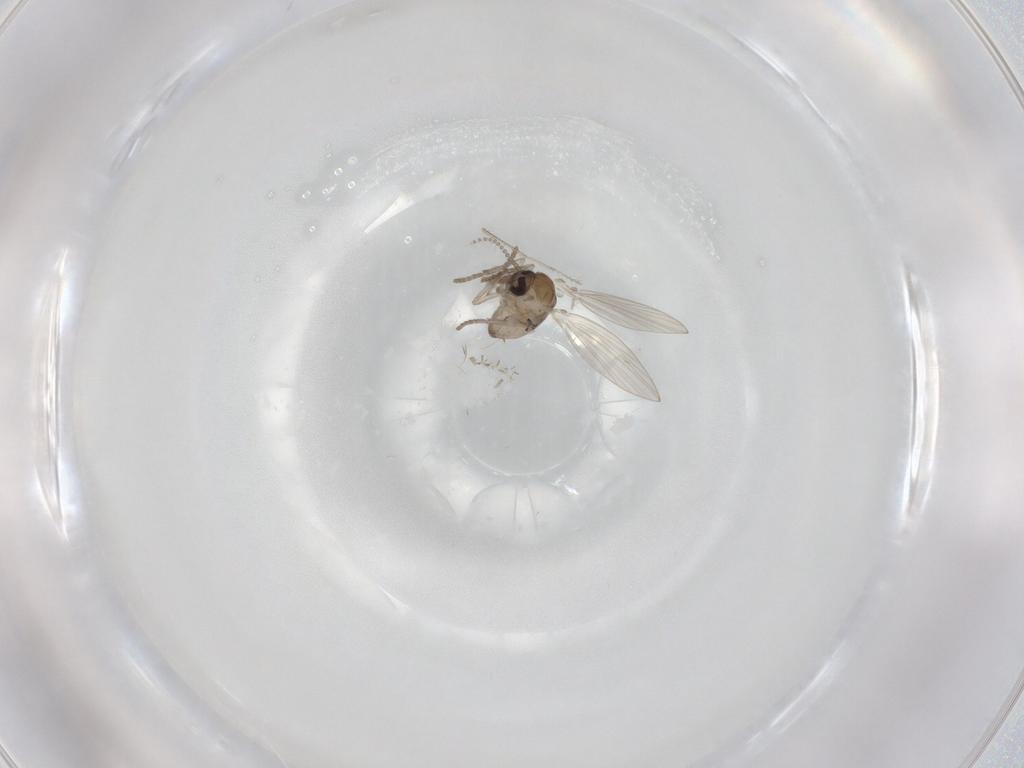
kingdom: Animalia
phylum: Arthropoda
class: Insecta
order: Diptera
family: Psychodidae
